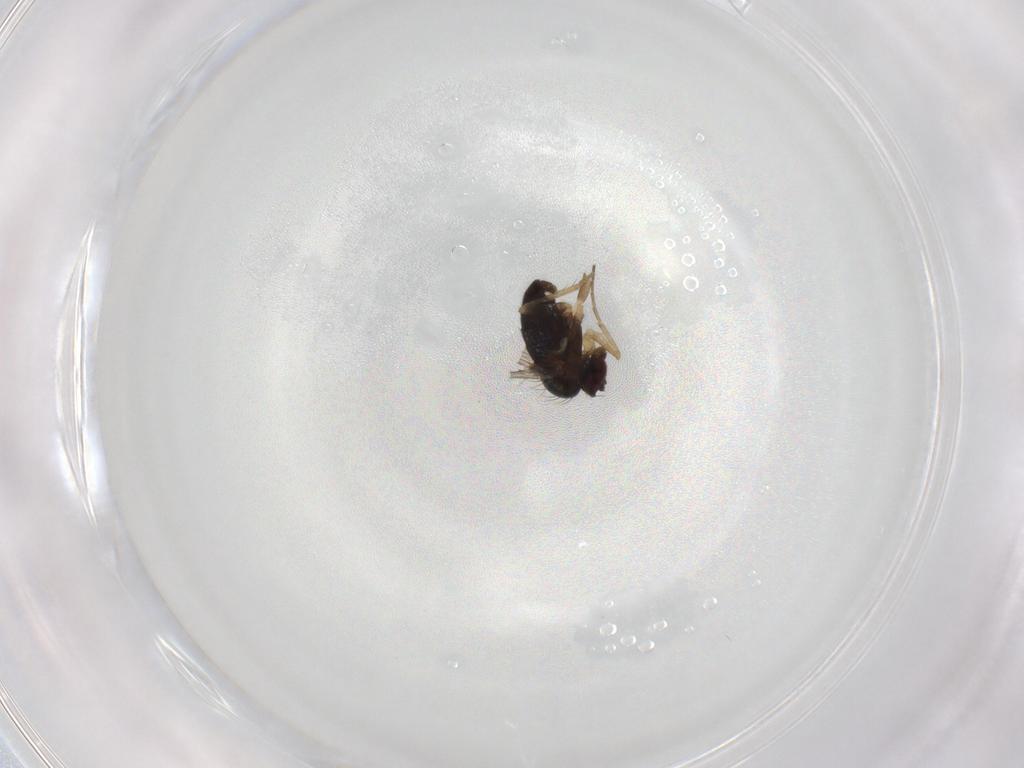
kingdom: Animalia
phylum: Arthropoda
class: Insecta
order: Diptera
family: Dolichopodidae
